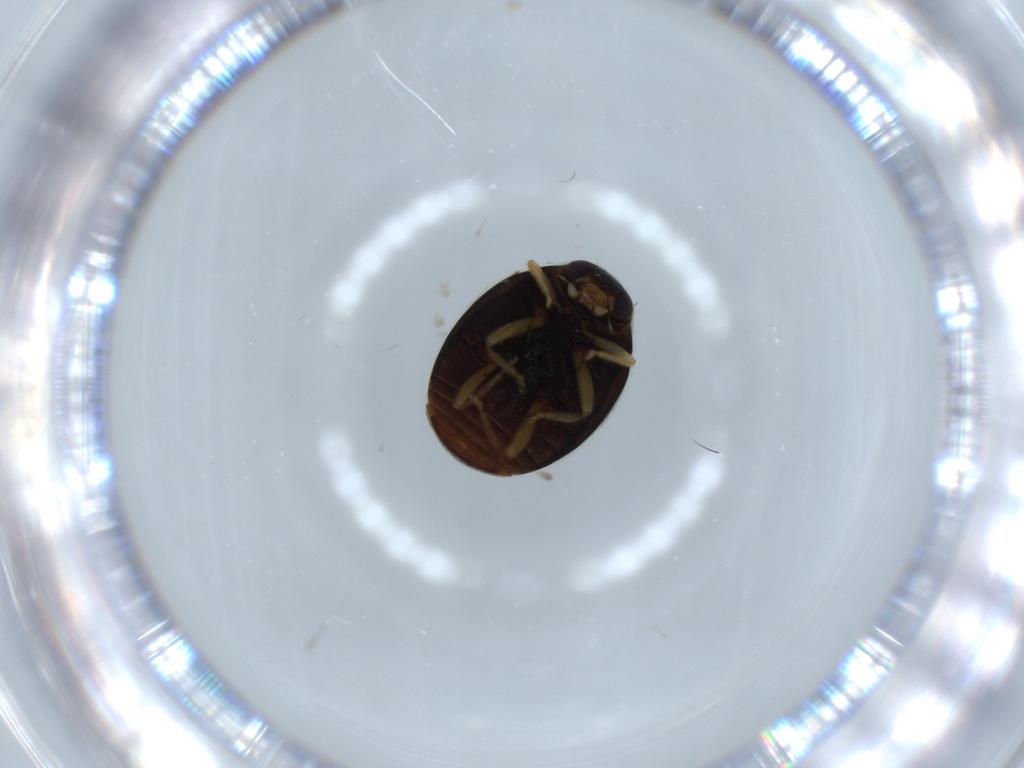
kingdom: Animalia
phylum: Arthropoda
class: Insecta
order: Coleoptera
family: Coccinellidae
